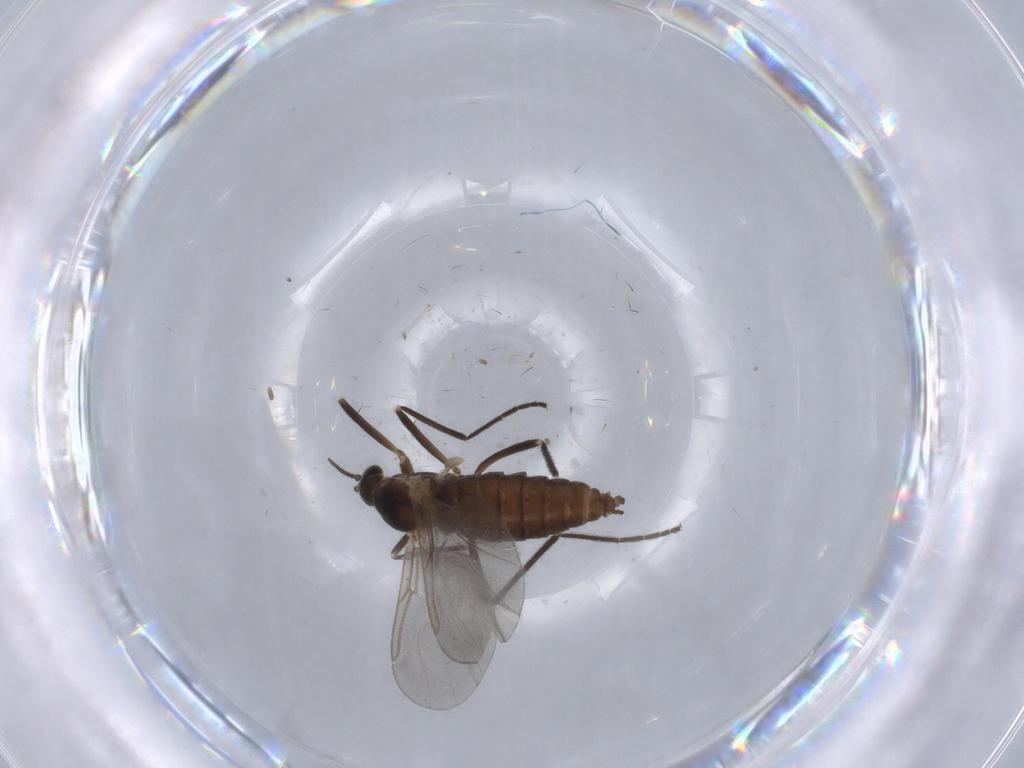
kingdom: Animalia
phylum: Arthropoda
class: Insecta
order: Diptera
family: Cecidomyiidae
